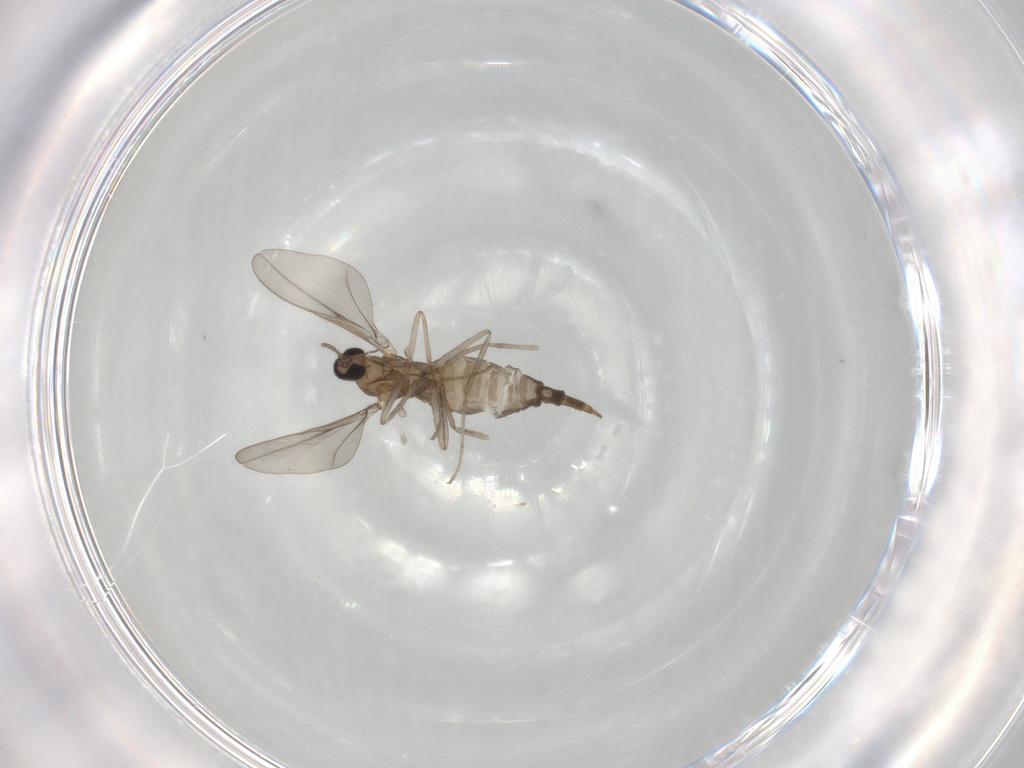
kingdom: Animalia
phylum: Arthropoda
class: Insecta
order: Diptera
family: Cecidomyiidae
